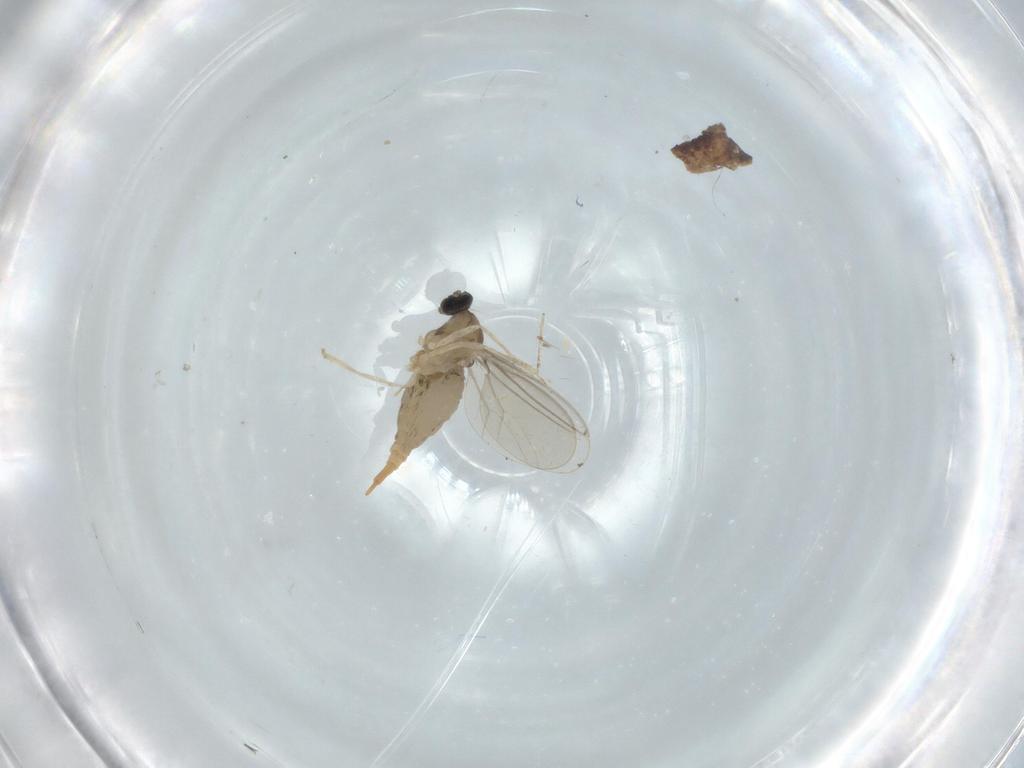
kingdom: Animalia
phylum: Arthropoda
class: Insecta
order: Diptera
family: Cecidomyiidae
